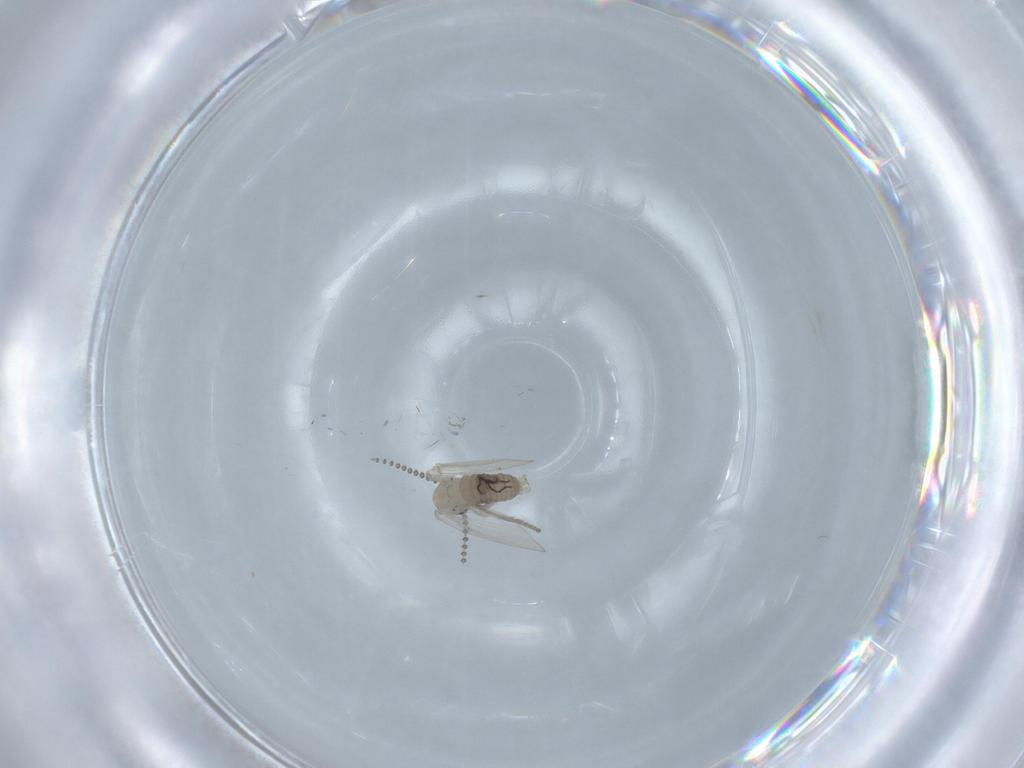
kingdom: Animalia
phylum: Arthropoda
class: Insecta
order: Diptera
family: Psychodidae
